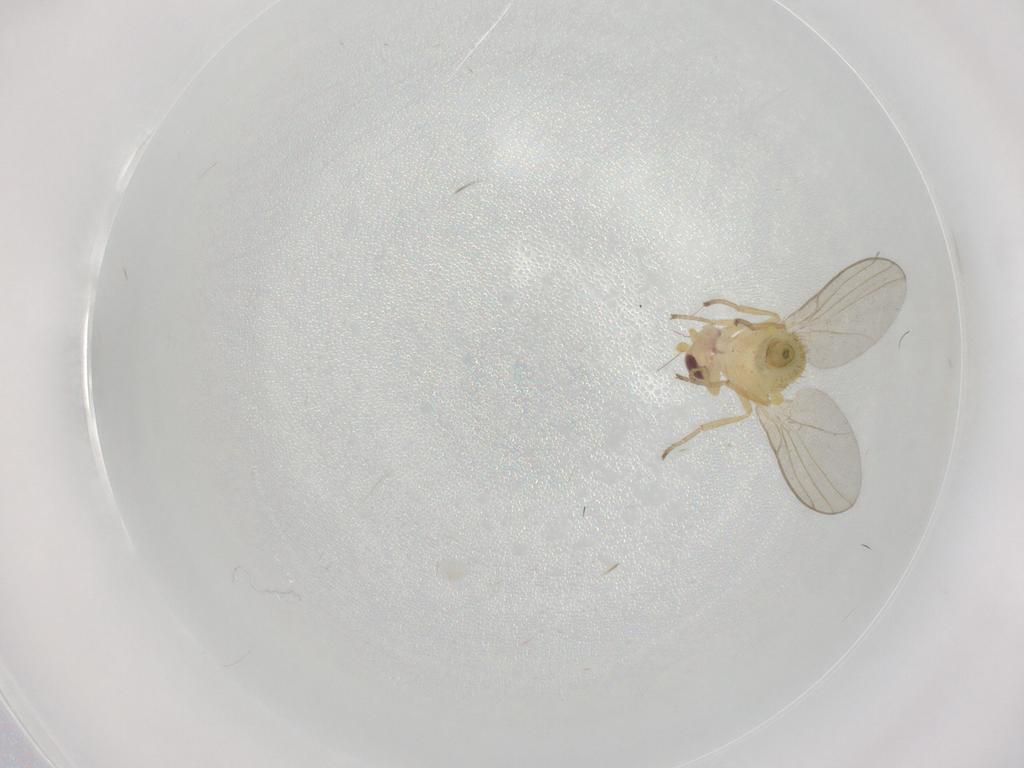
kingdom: Animalia
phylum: Arthropoda
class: Insecta
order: Diptera
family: Agromyzidae
